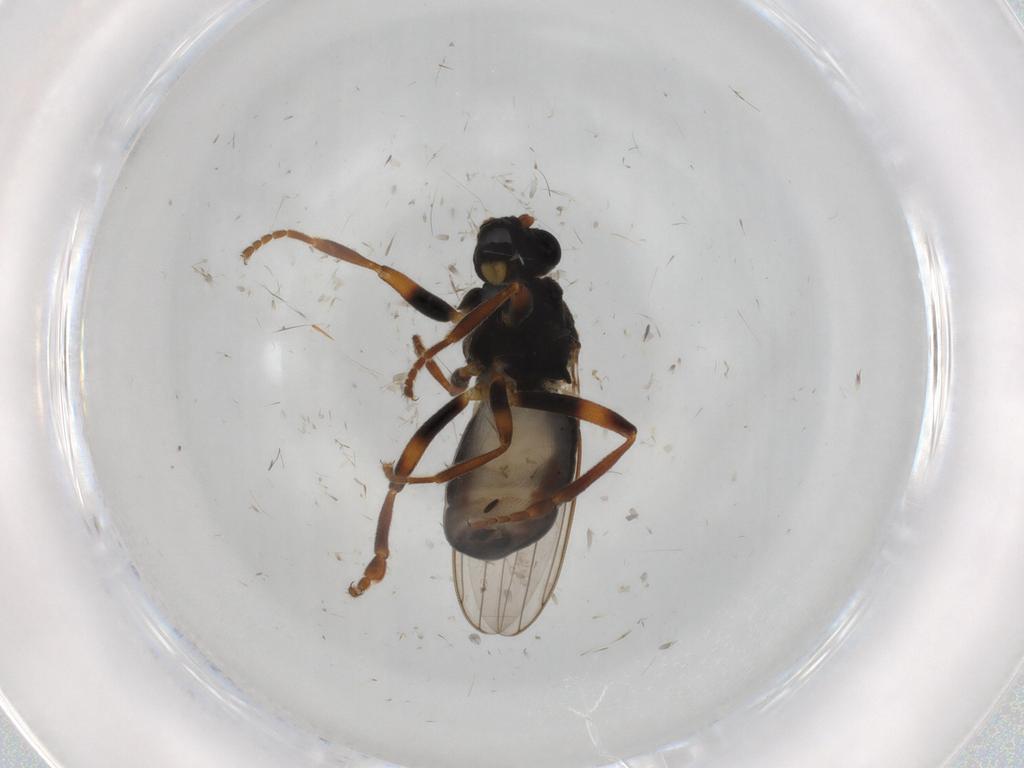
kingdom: Animalia
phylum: Arthropoda
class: Insecta
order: Diptera
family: Sphaeroceridae
